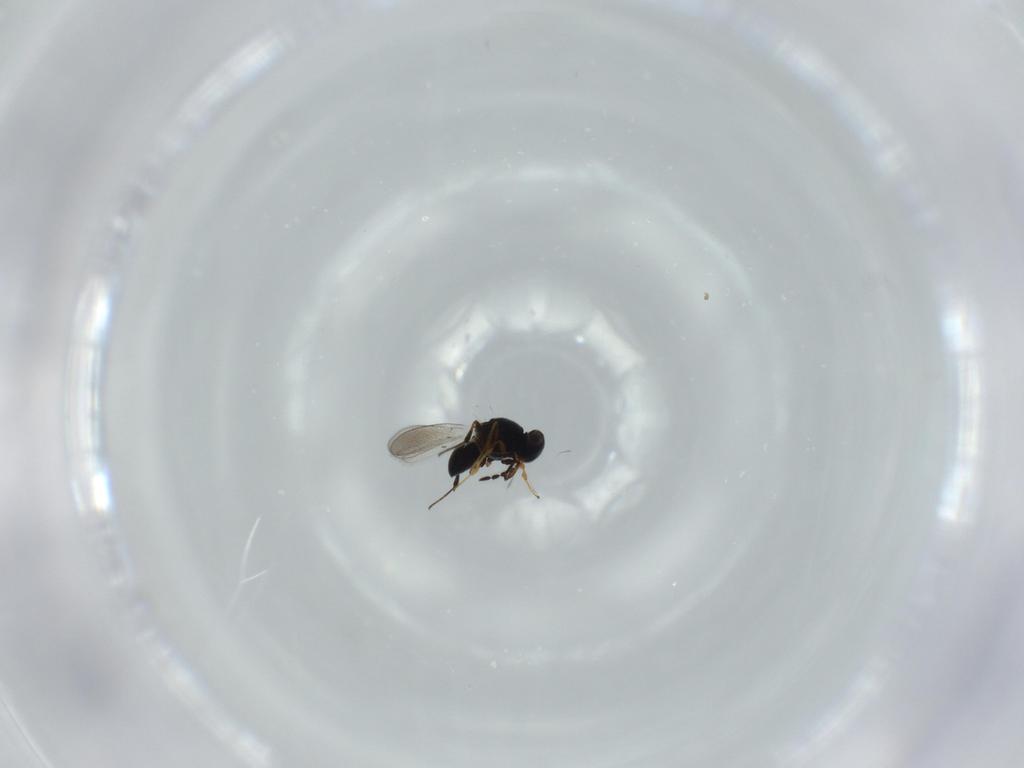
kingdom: Animalia
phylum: Arthropoda
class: Insecta
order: Hymenoptera
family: Platygastridae
